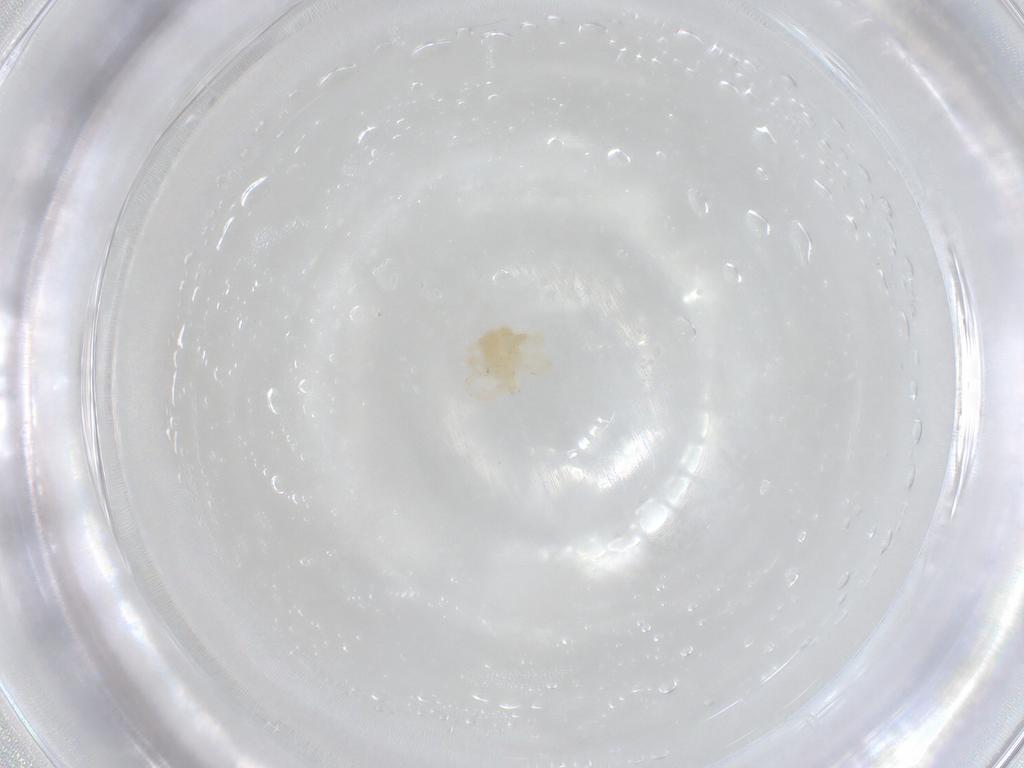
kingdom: Animalia
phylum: Arthropoda
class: Arachnida
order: Trombidiformes
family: Anystidae
